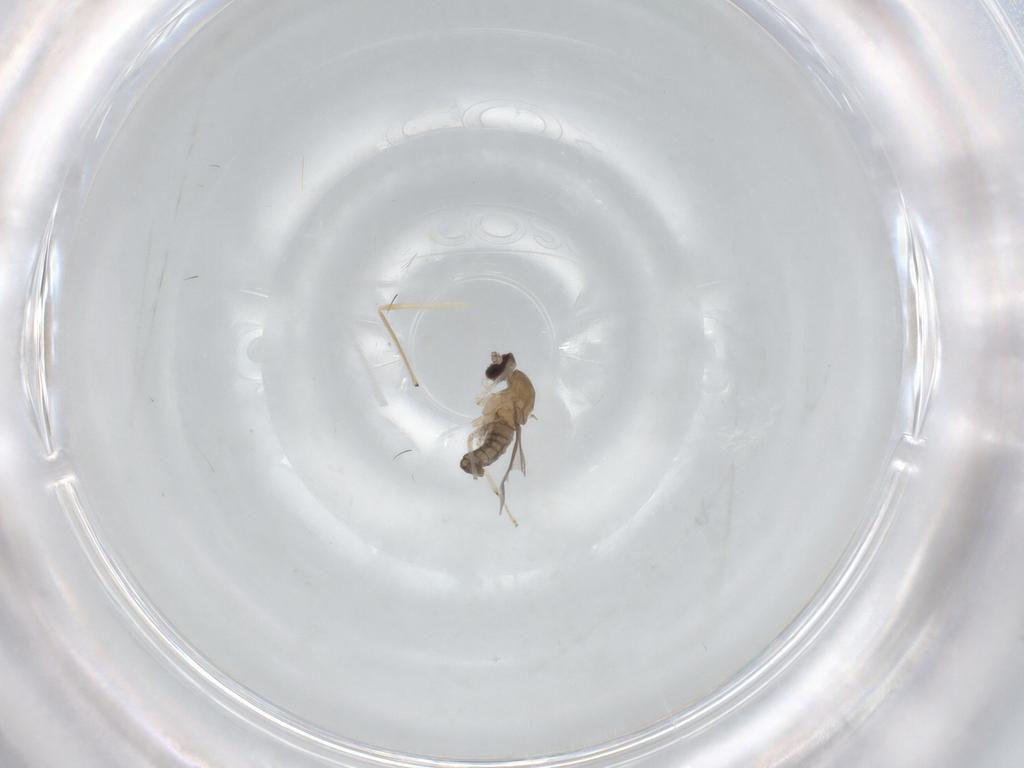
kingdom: Animalia
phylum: Arthropoda
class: Insecta
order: Diptera
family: Cecidomyiidae
